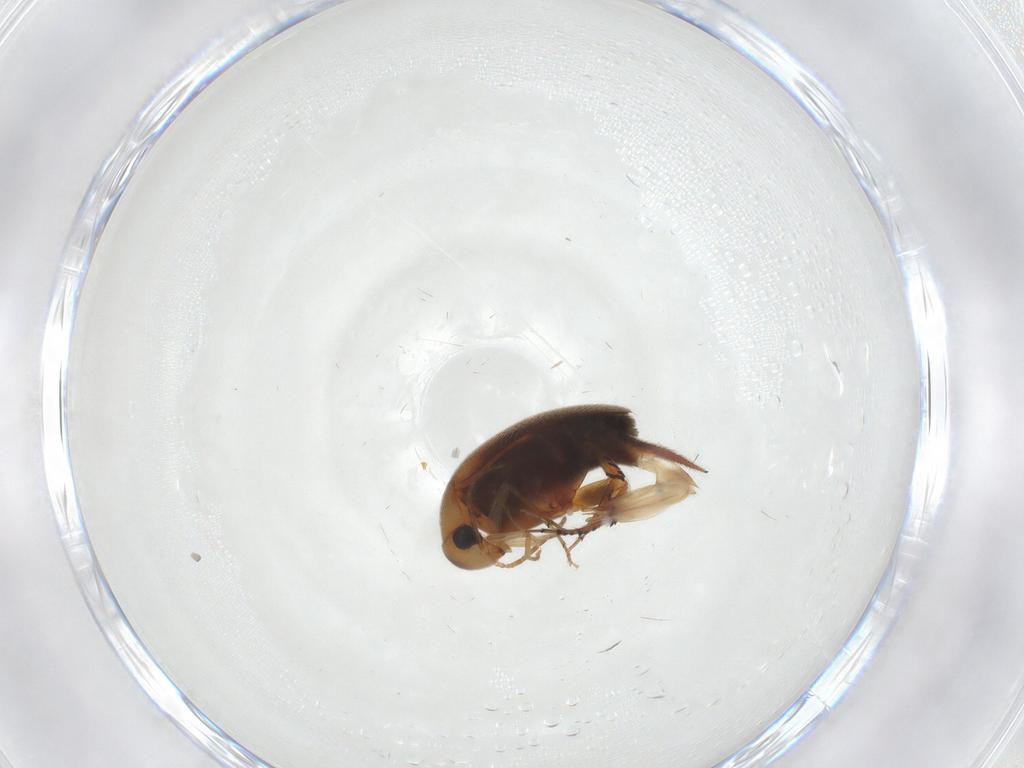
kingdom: Animalia
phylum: Arthropoda
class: Insecta
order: Coleoptera
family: Mordellidae
